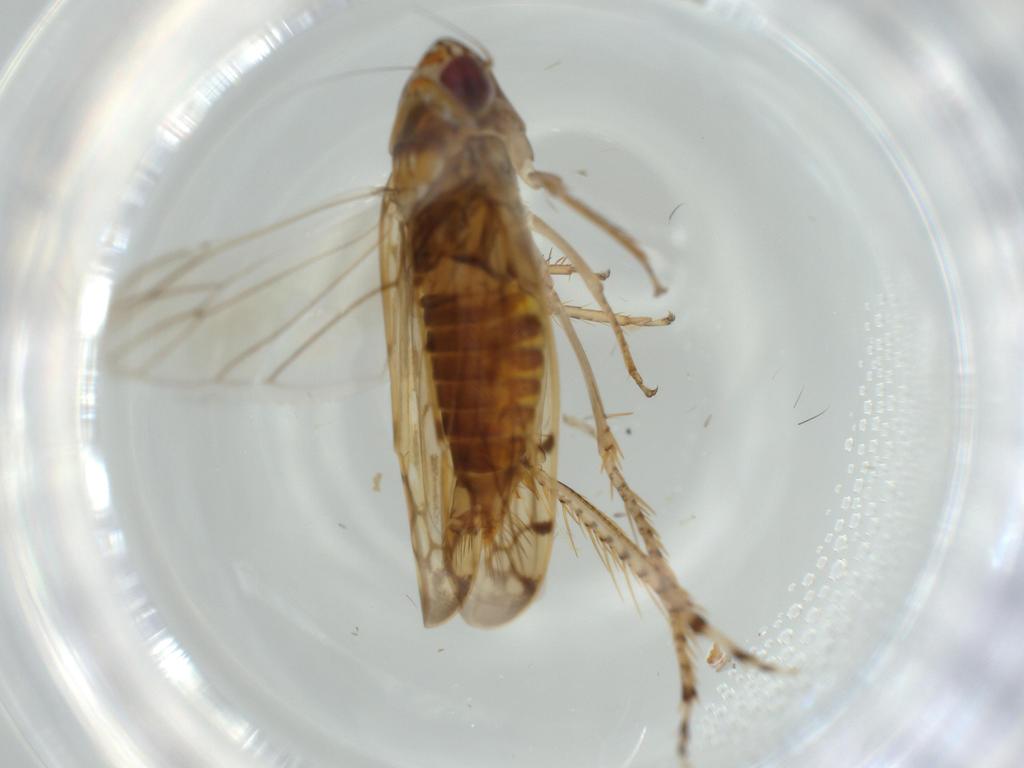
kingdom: Animalia
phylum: Arthropoda
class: Insecta
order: Hemiptera
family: Cicadellidae
